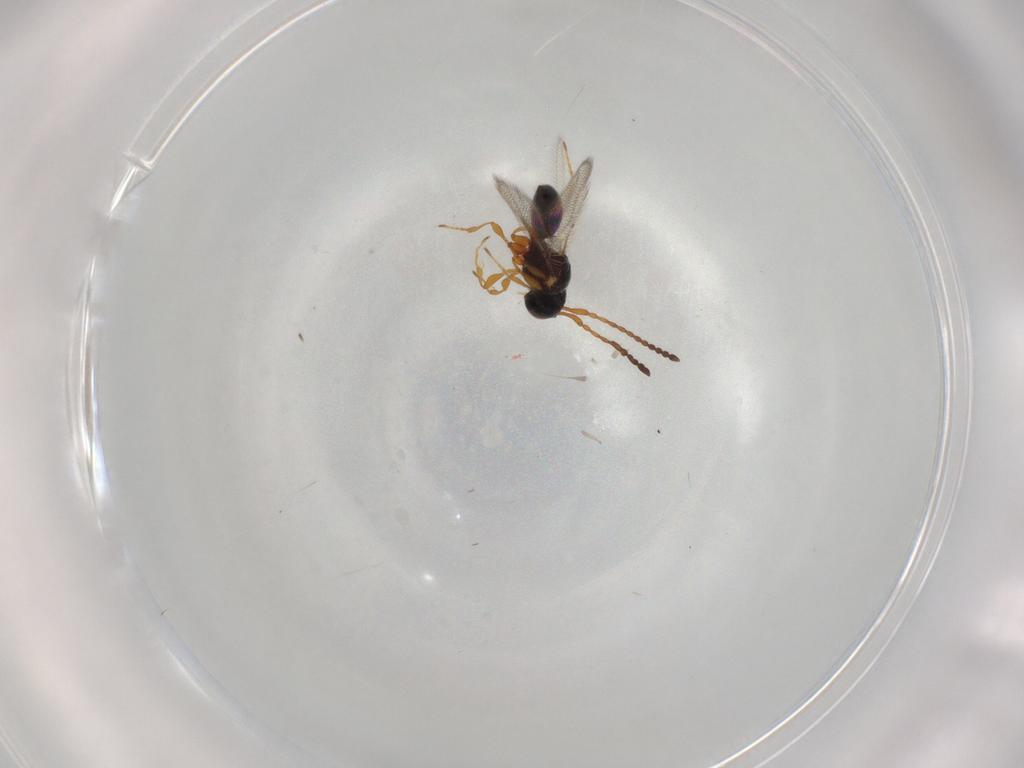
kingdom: Animalia
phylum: Arthropoda
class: Insecta
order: Hymenoptera
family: Diapriidae
